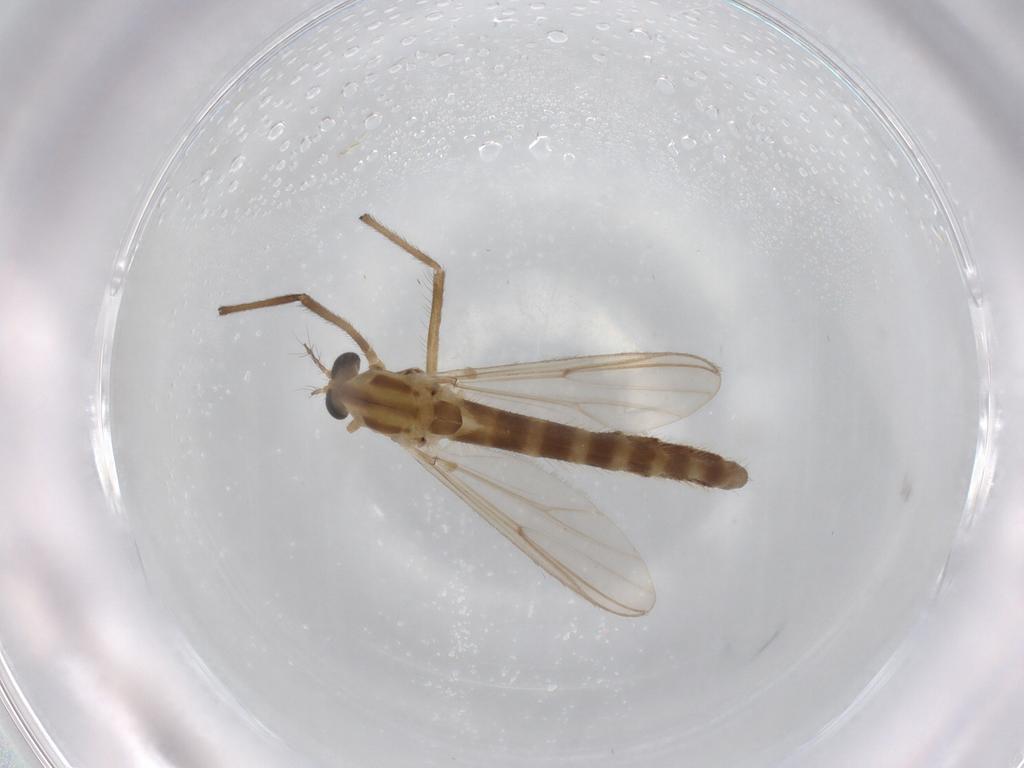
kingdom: Animalia
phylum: Arthropoda
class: Insecta
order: Diptera
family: Chironomidae
